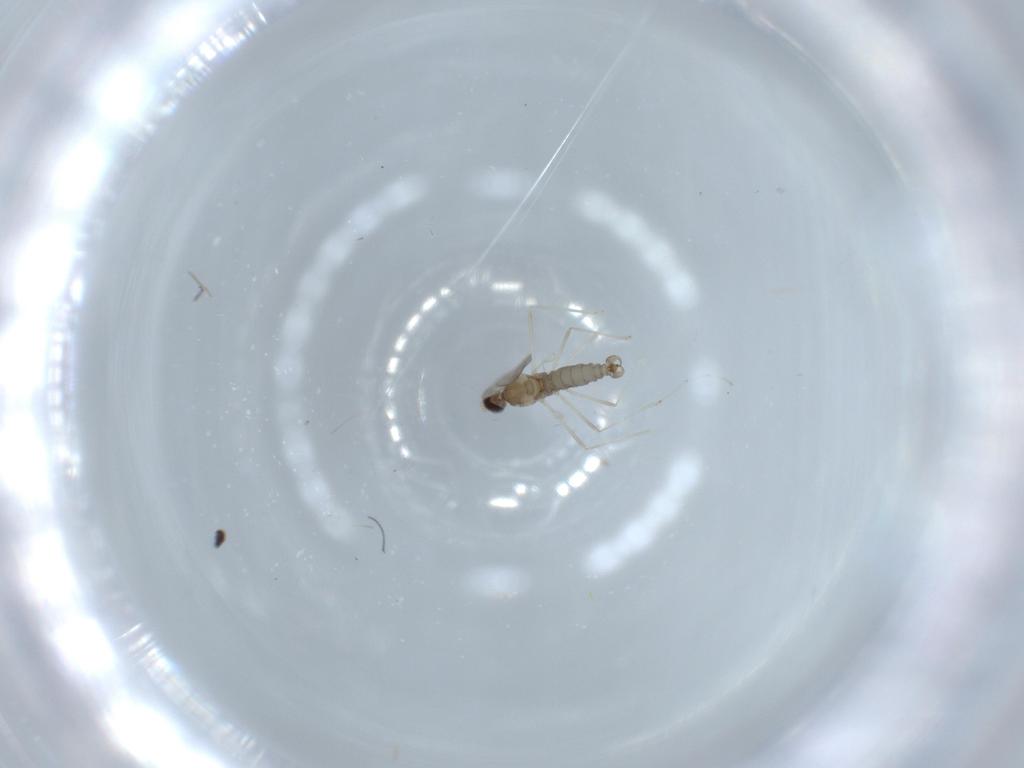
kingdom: Animalia
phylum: Arthropoda
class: Insecta
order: Diptera
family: Cecidomyiidae
